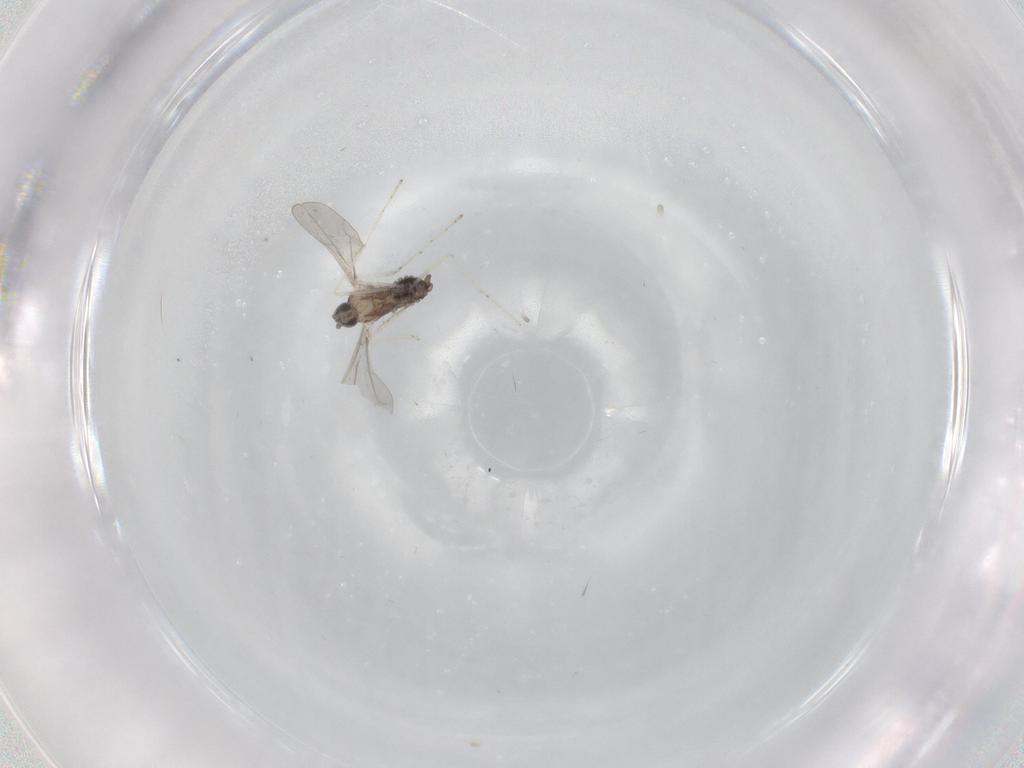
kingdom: Animalia
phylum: Arthropoda
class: Insecta
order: Diptera
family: Cecidomyiidae
